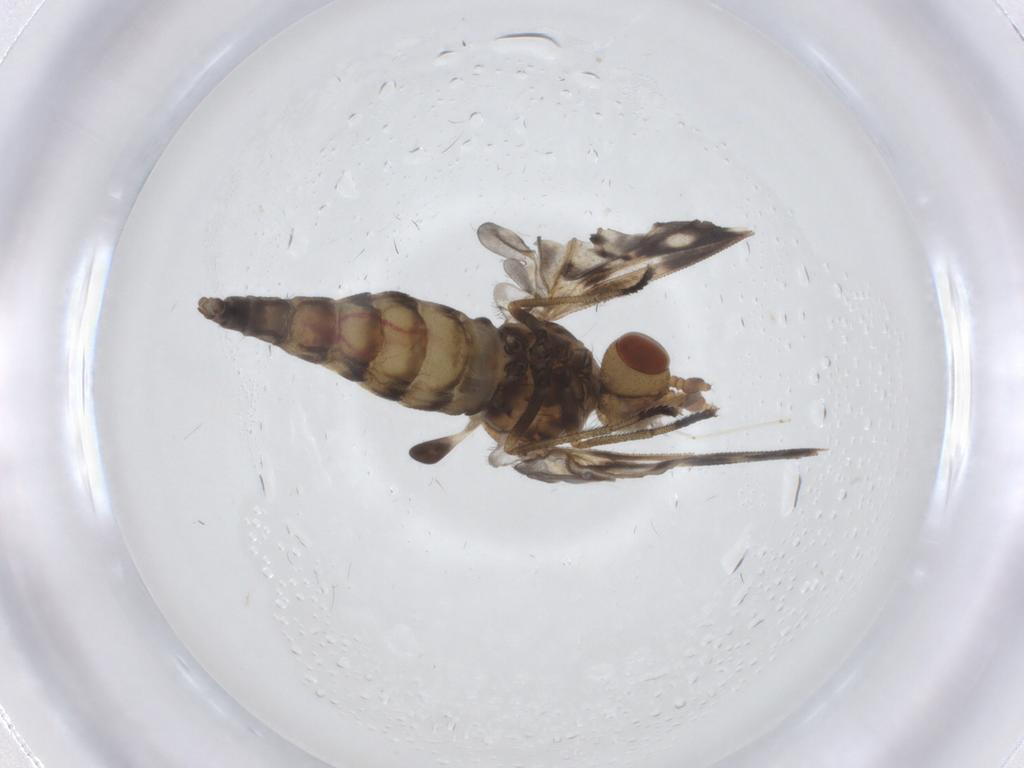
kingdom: Animalia
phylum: Arthropoda
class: Insecta
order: Diptera
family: Austroleptidae
